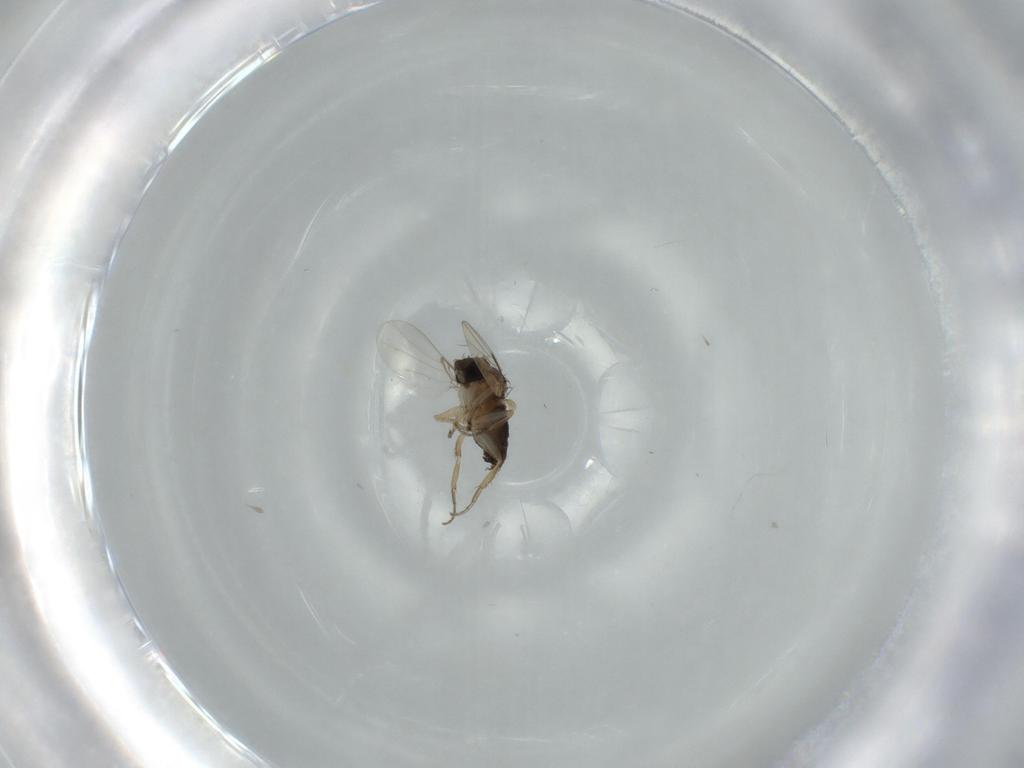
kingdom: Animalia
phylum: Arthropoda
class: Insecta
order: Diptera
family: Phoridae
